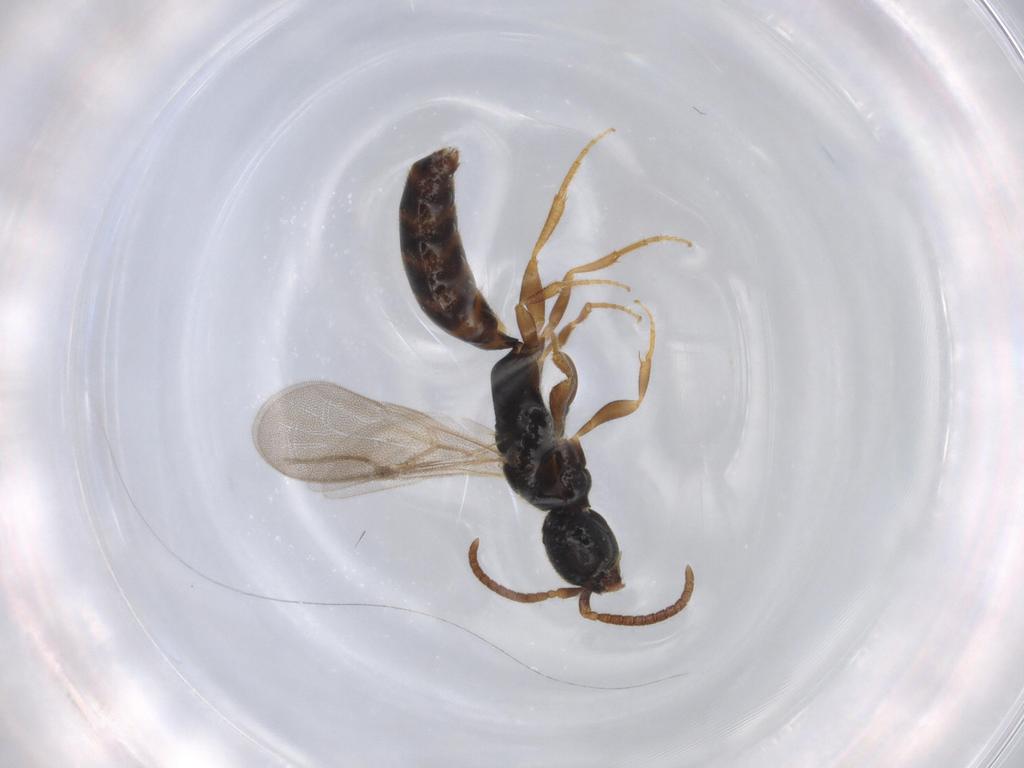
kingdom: Animalia
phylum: Arthropoda
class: Insecta
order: Hymenoptera
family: Bethylidae
